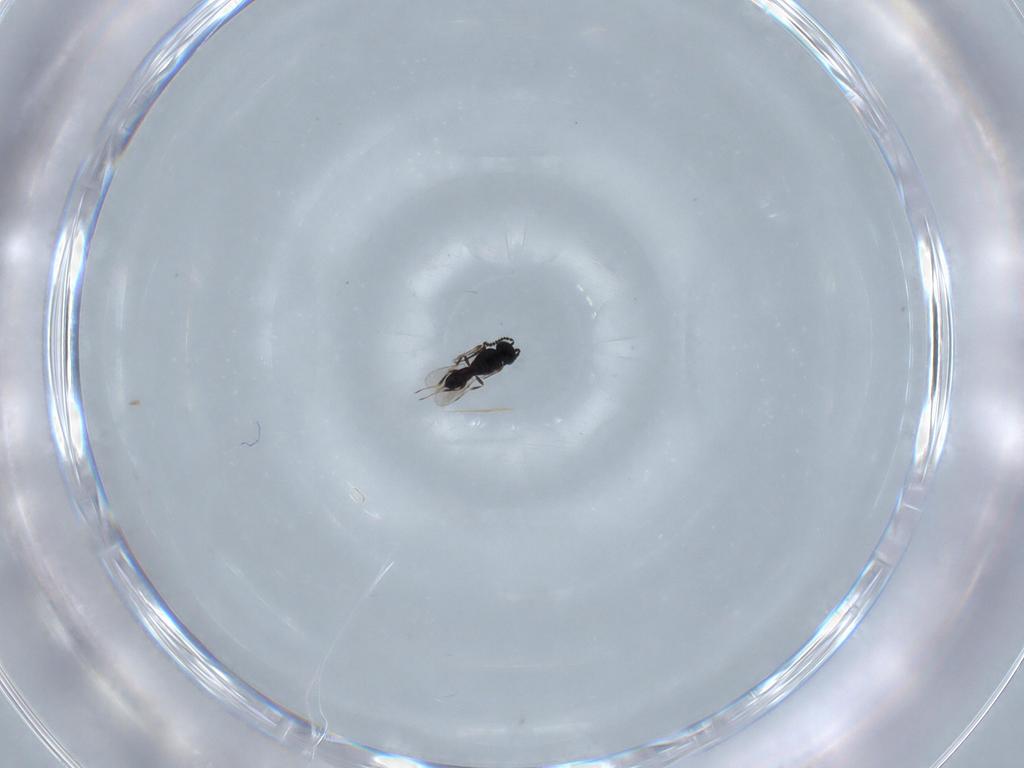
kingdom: Animalia
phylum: Arthropoda
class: Insecta
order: Hymenoptera
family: Scelionidae
